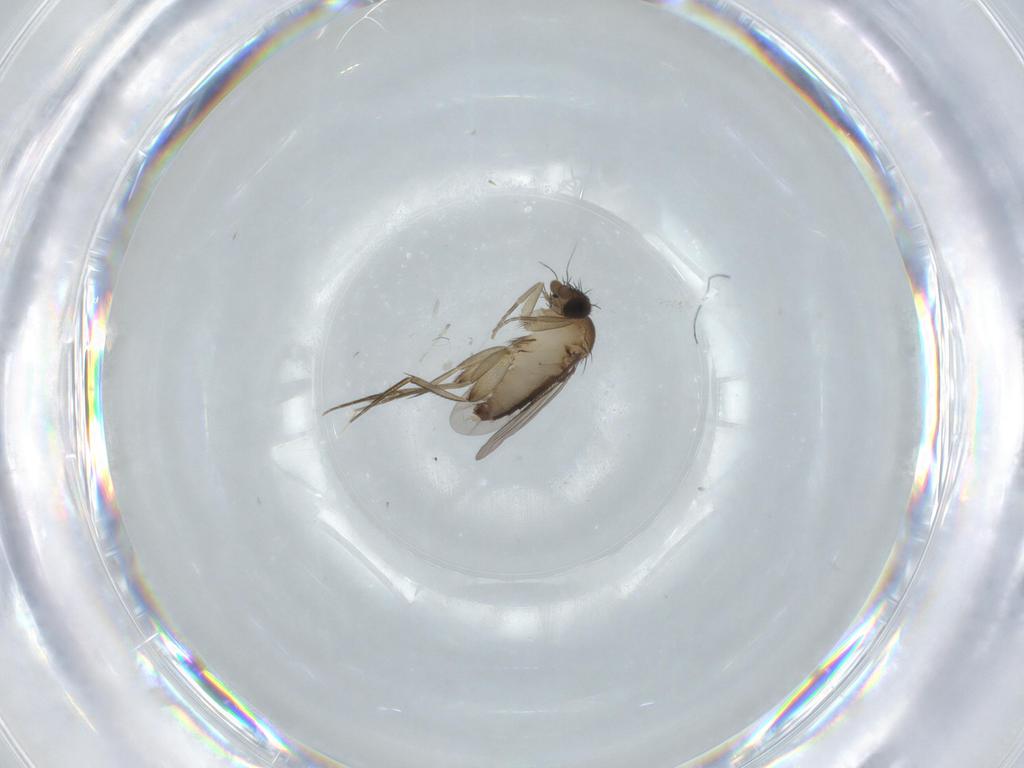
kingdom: Animalia
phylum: Arthropoda
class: Insecta
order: Diptera
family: Phoridae
